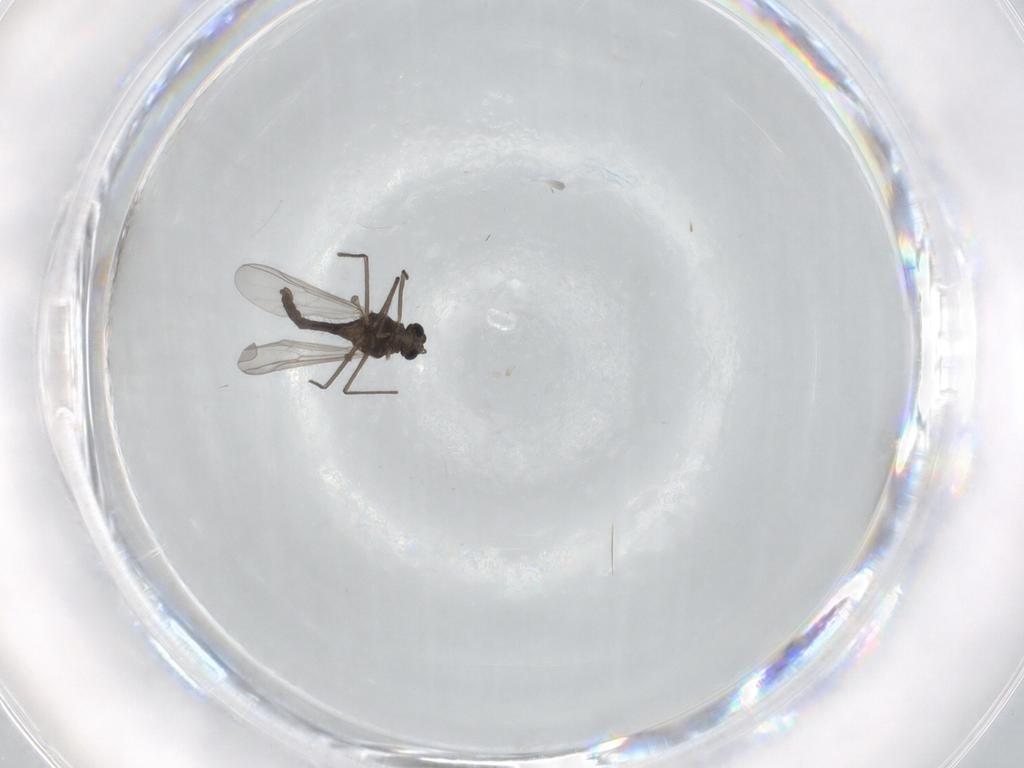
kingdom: Animalia
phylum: Arthropoda
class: Insecta
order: Diptera
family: Chironomidae
